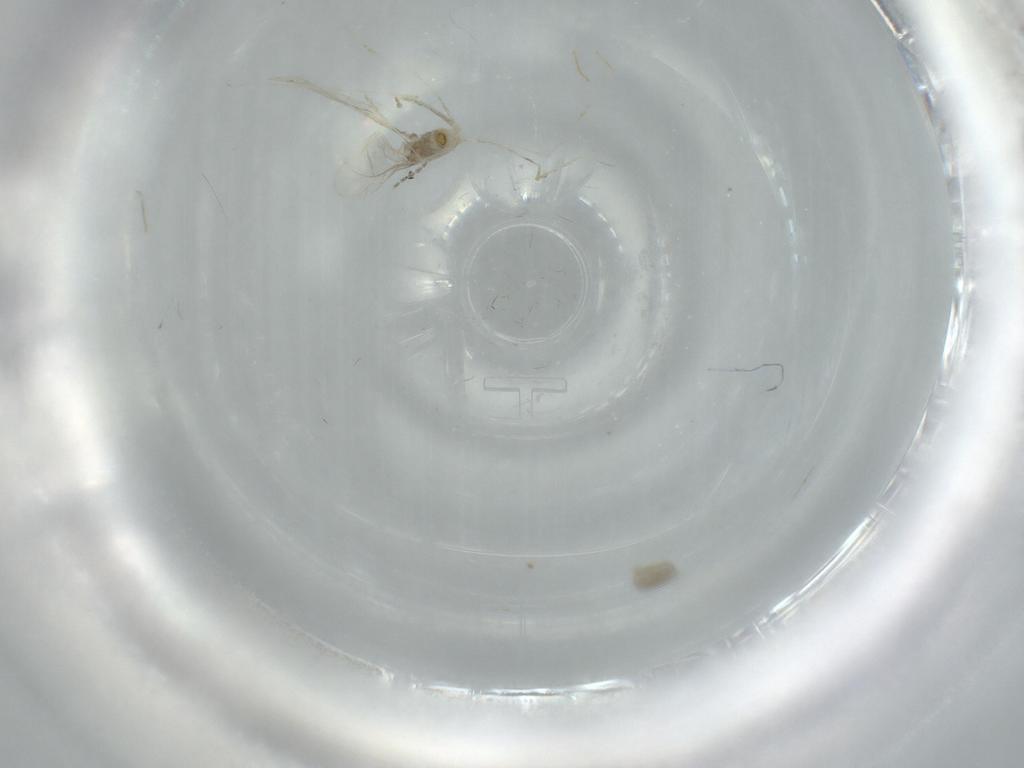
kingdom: Animalia
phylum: Arthropoda
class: Insecta
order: Diptera
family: Cecidomyiidae
